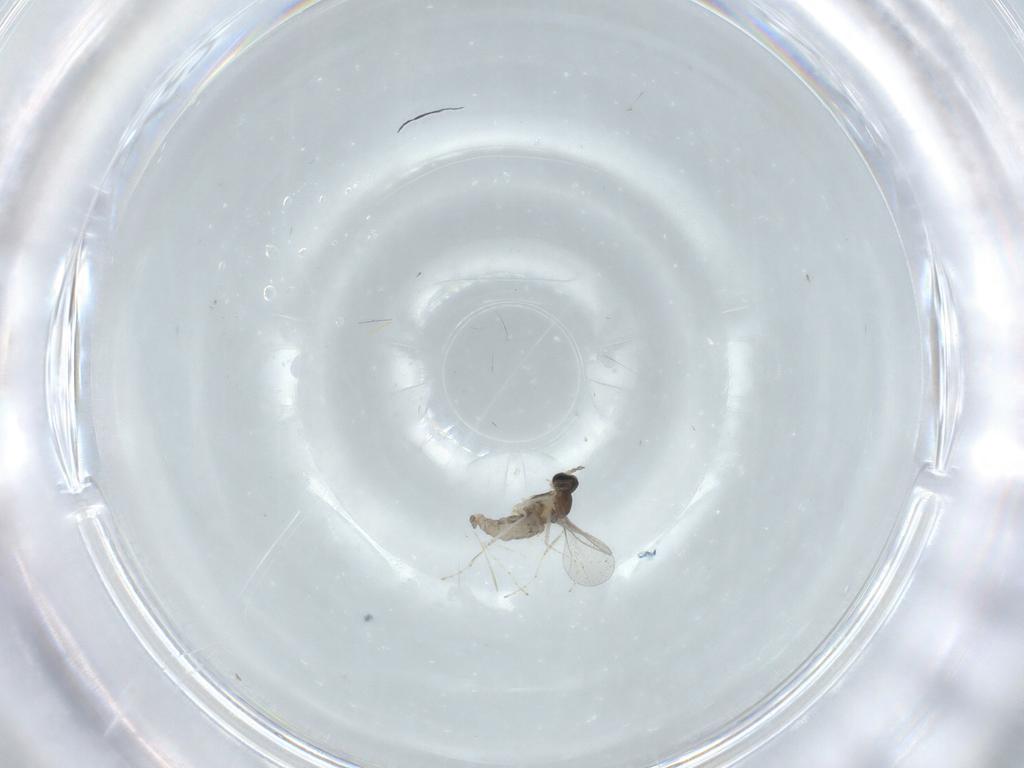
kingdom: Animalia
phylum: Arthropoda
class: Insecta
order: Diptera
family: Cecidomyiidae
